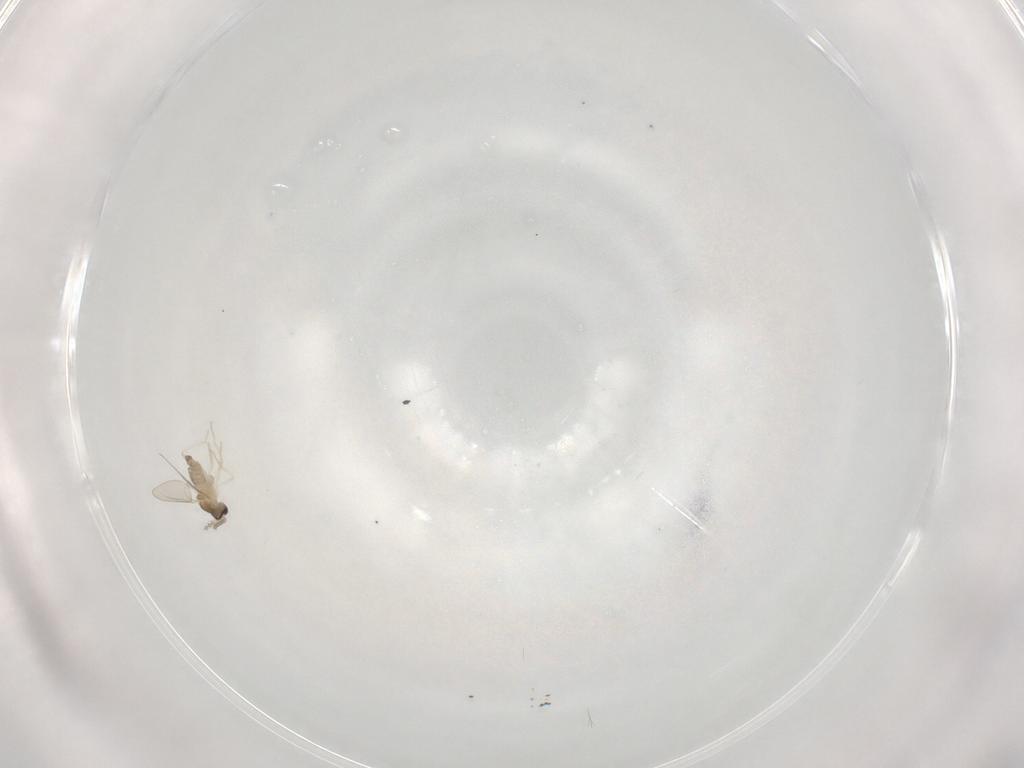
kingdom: Animalia
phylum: Arthropoda
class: Insecta
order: Diptera
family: Cecidomyiidae
